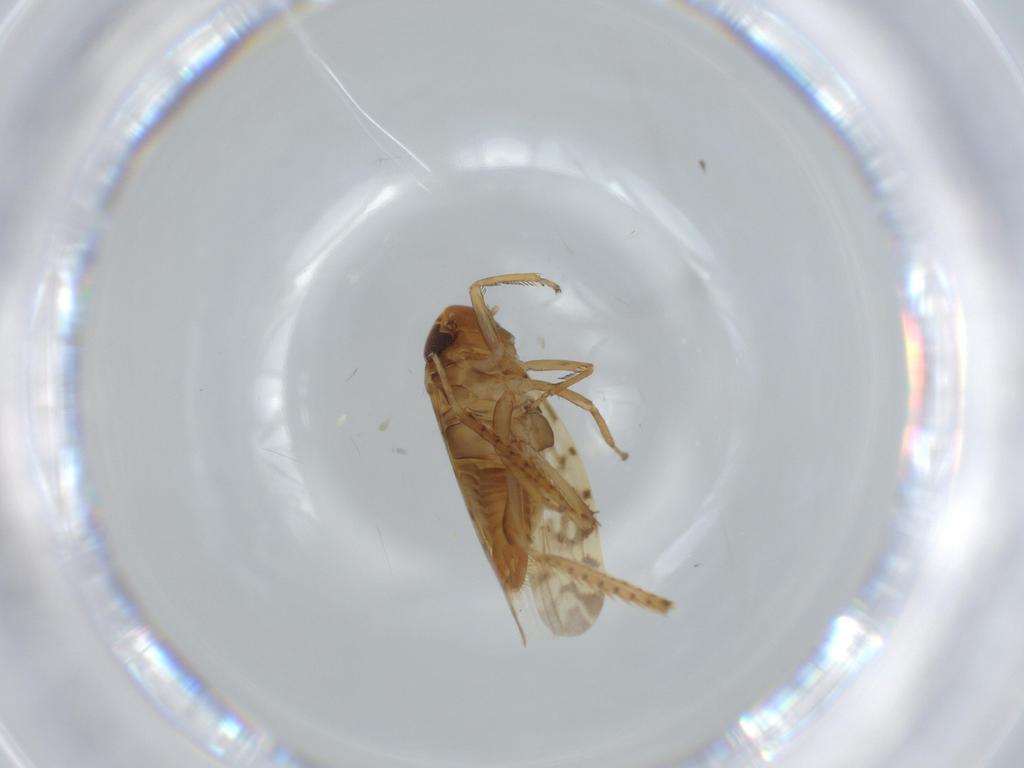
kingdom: Animalia
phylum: Arthropoda
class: Insecta
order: Hemiptera
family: Cicadellidae
